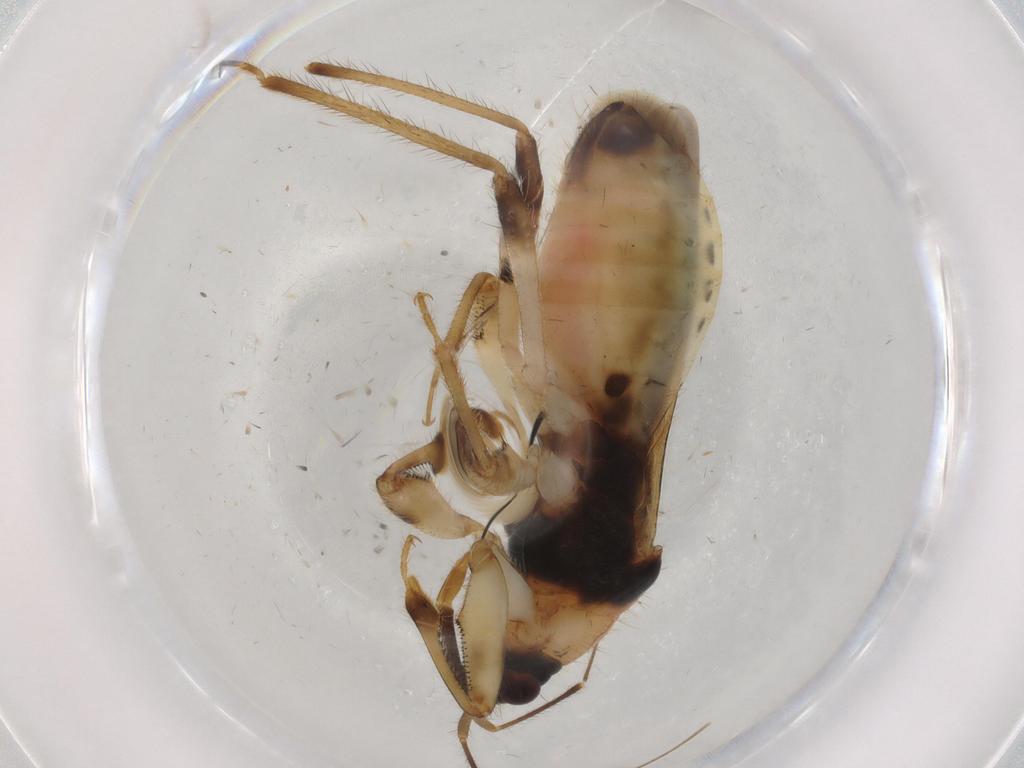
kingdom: Animalia
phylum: Arthropoda
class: Insecta
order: Hemiptera
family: Nabidae
